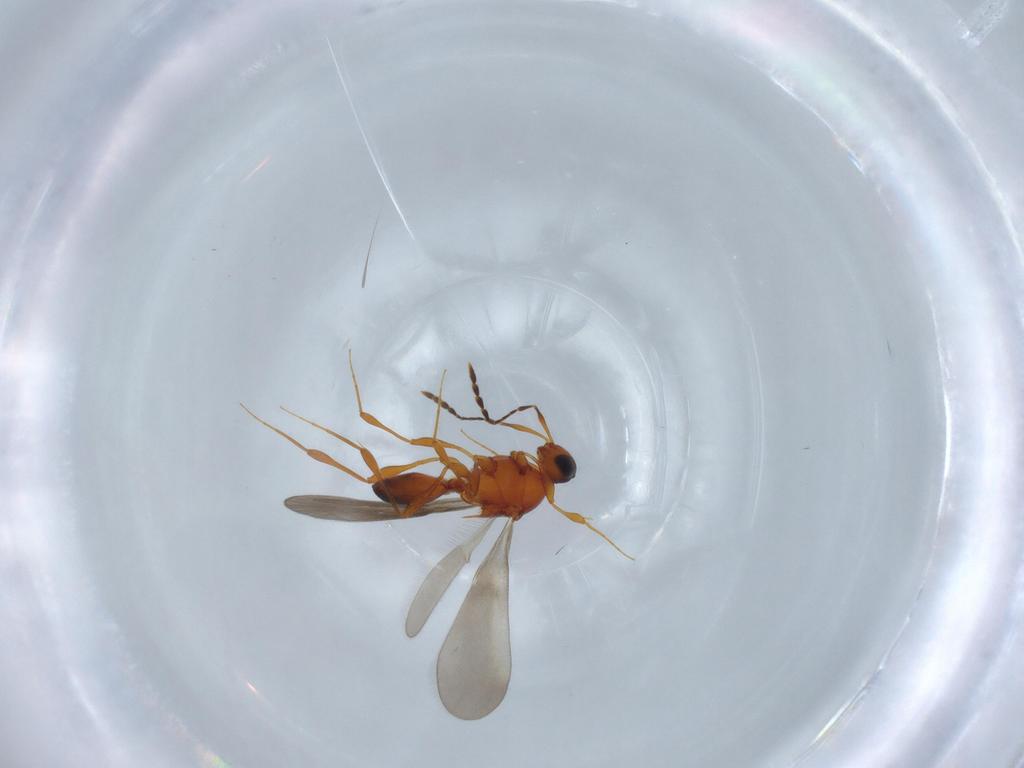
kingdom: Animalia
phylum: Arthropoda
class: Insecta
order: Hymenoptera
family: Platygastridae
